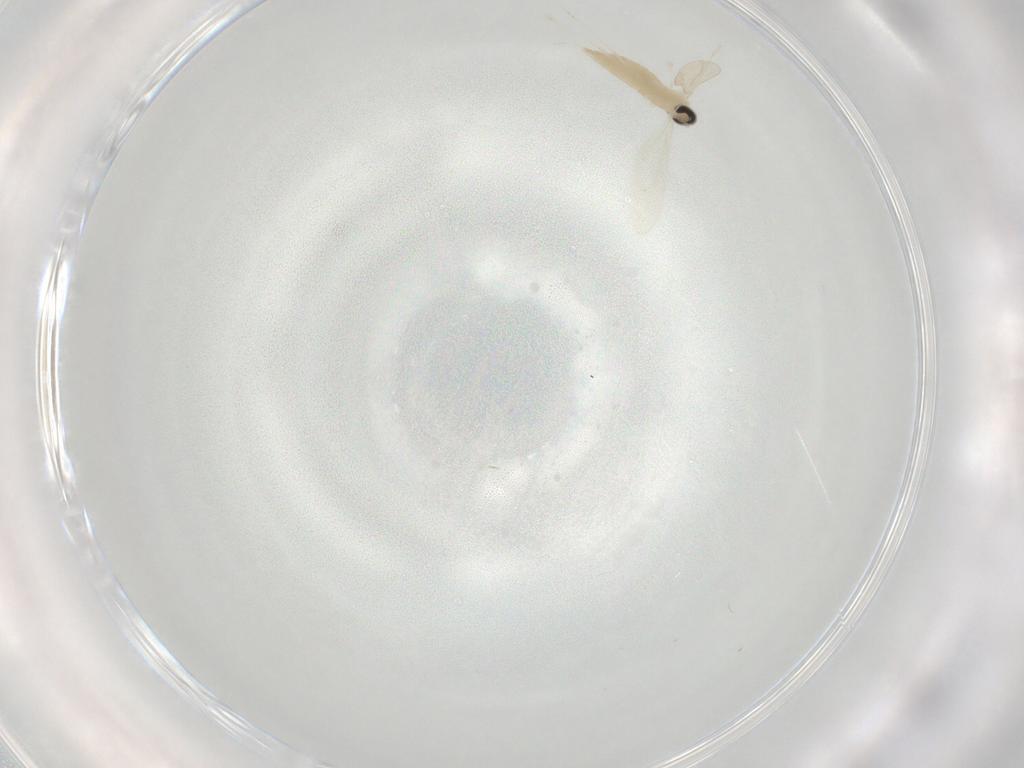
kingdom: Animalia
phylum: Arthropoda
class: Insecta
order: Diptera
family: Cecidomyiidae
